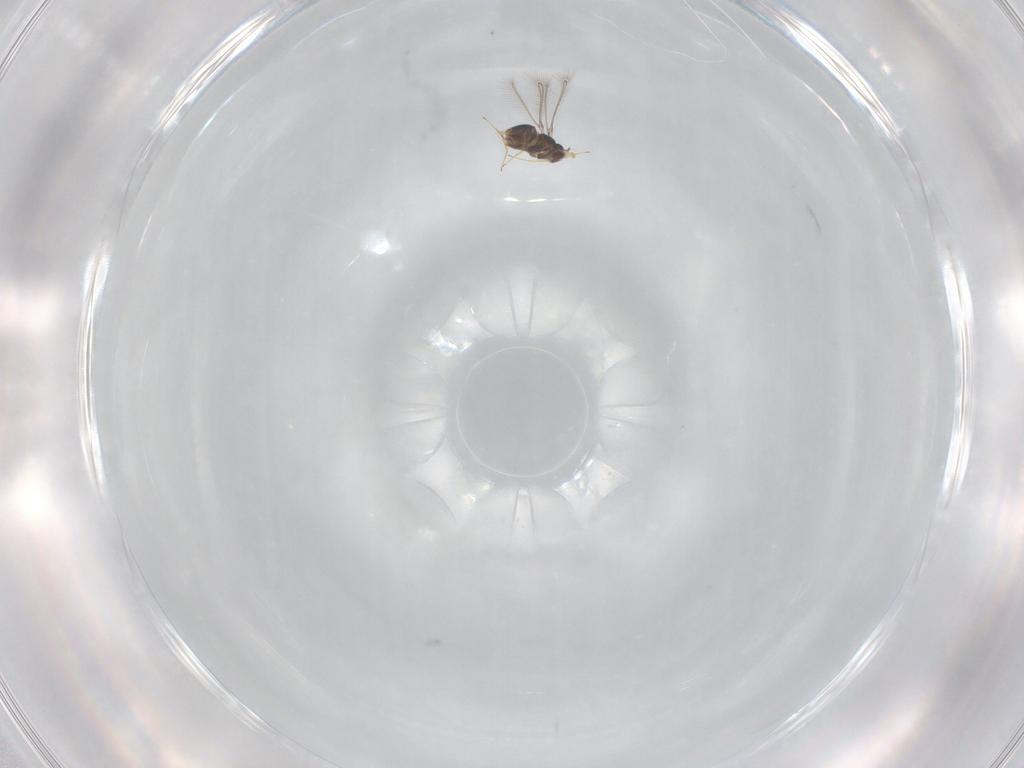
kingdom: Animalia
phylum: Arthropoda
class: Insecta
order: Hymenoptera
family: Mymaridae
